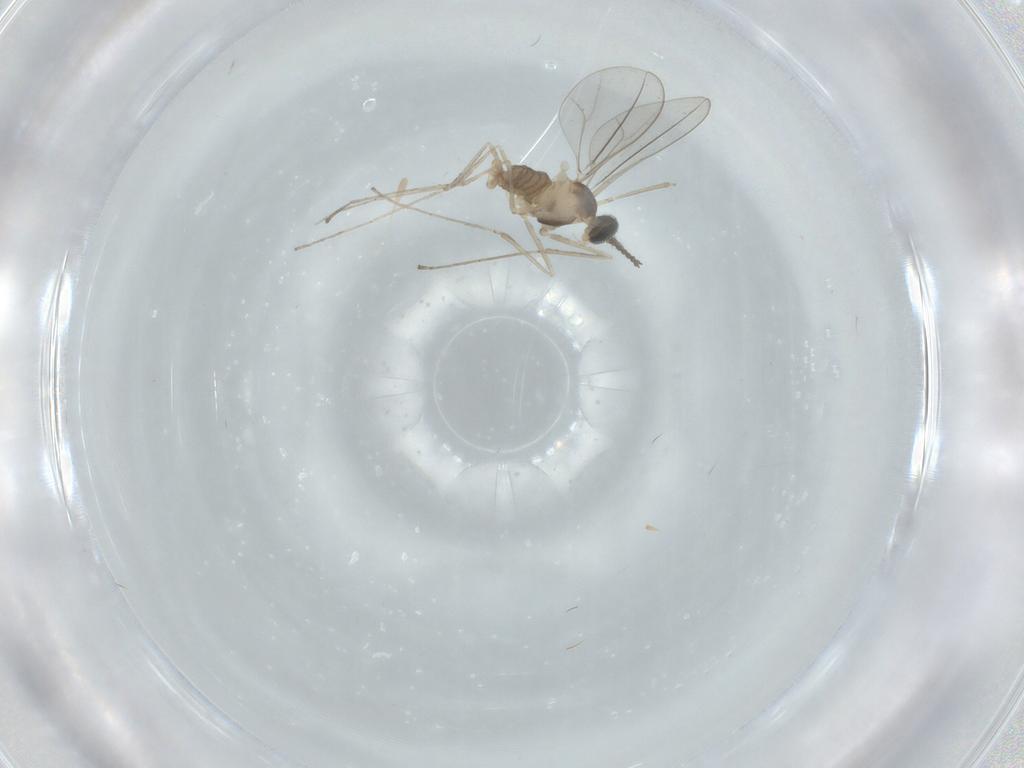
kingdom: Animalia
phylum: Arthropoda
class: Insecta
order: Diptera
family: Cecidomyiidae
